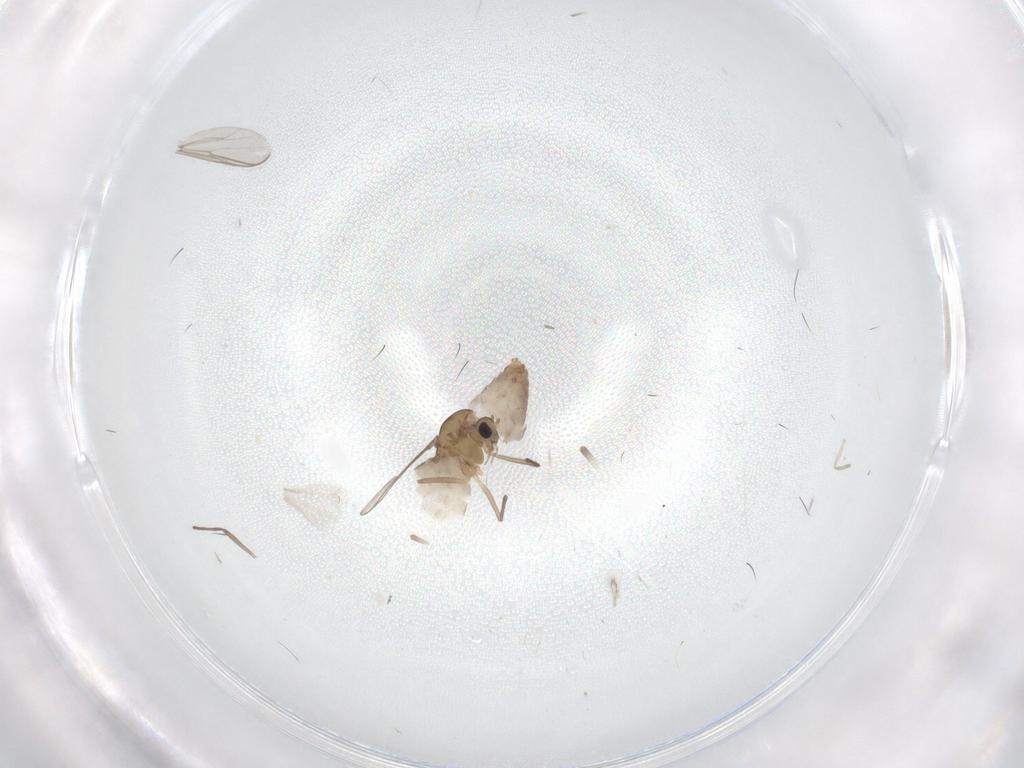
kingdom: Animalia
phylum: Arthropoda
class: Insecta
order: Diptera
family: Chironomidae
